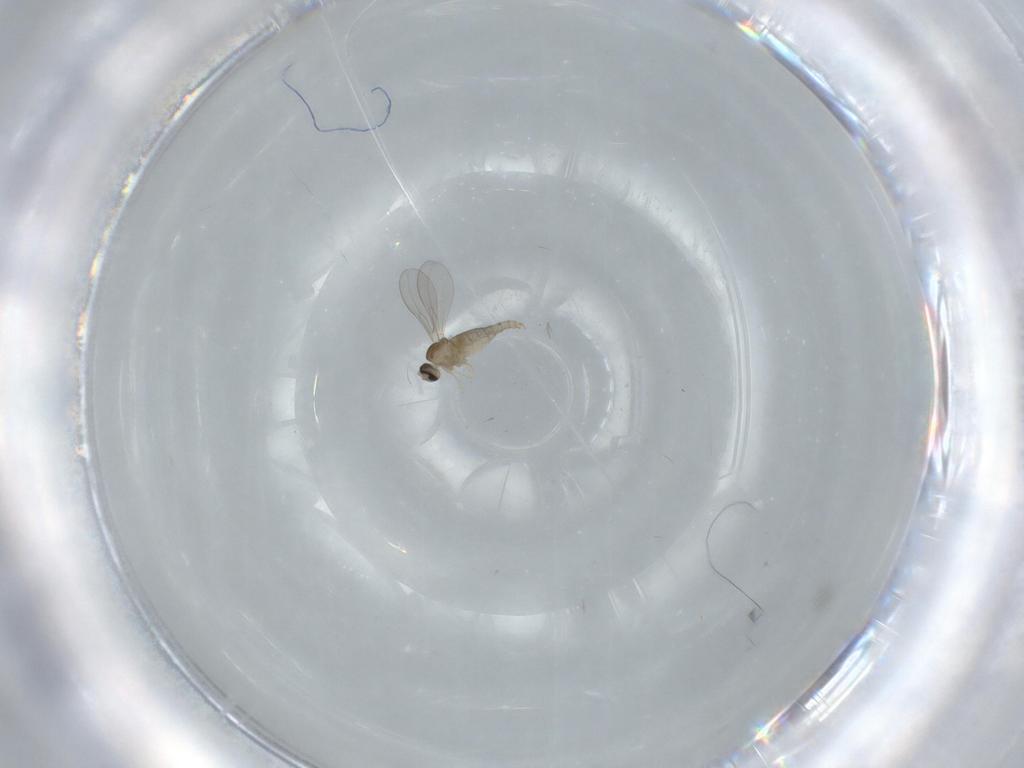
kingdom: Animalia
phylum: Arthropoda
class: Insecta
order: Diptera
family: Cecidomyiidae
